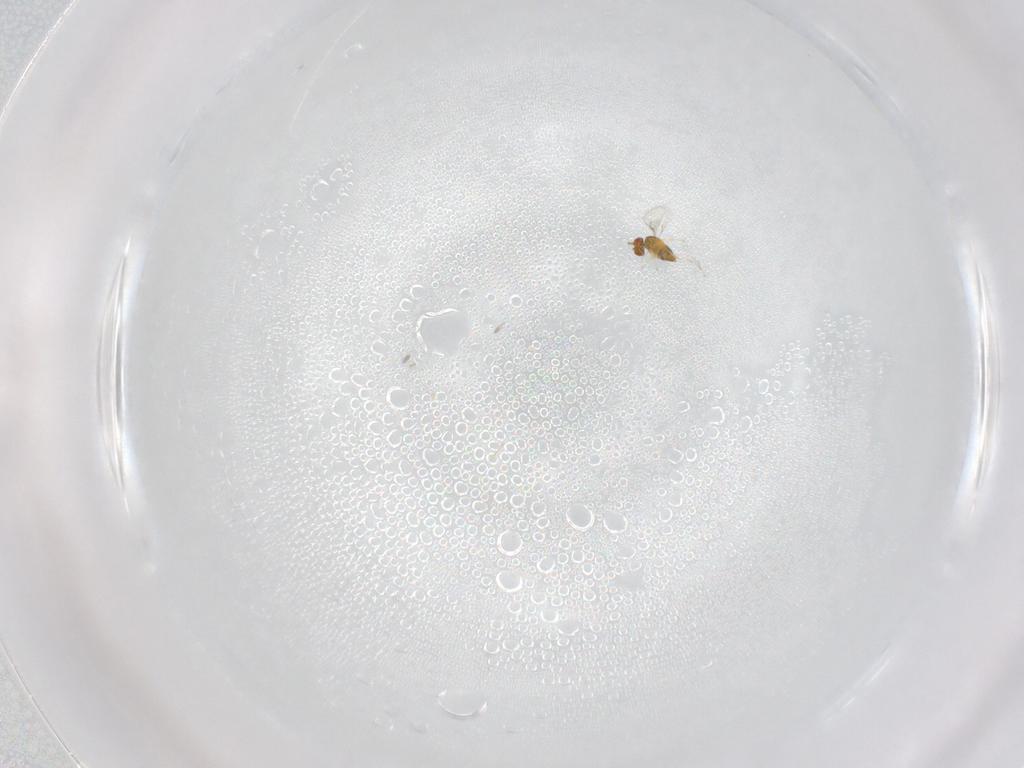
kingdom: Animalia
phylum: Arthropoda
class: Insecta
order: Hymenoptera
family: Trichogrammatidae
